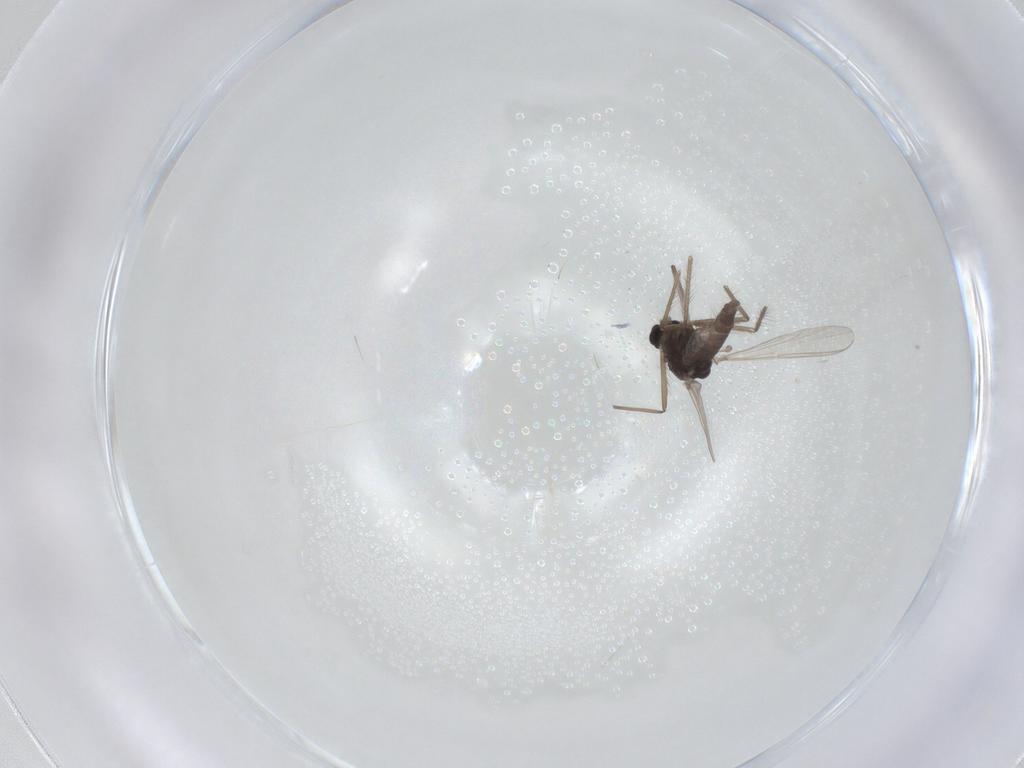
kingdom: Animalia
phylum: Arthropoda
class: Insecta
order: Diptera
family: Chironomidae
